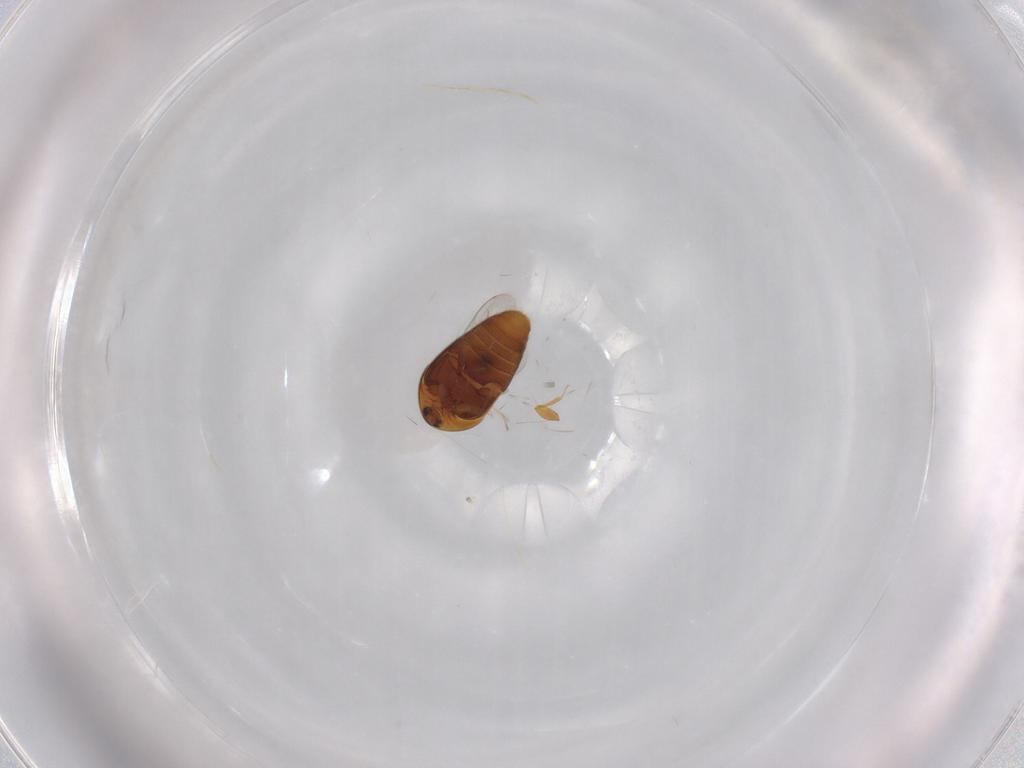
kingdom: Animalia
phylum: Arthropoda
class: Insecta
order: Coleoptera
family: Corylophidae
